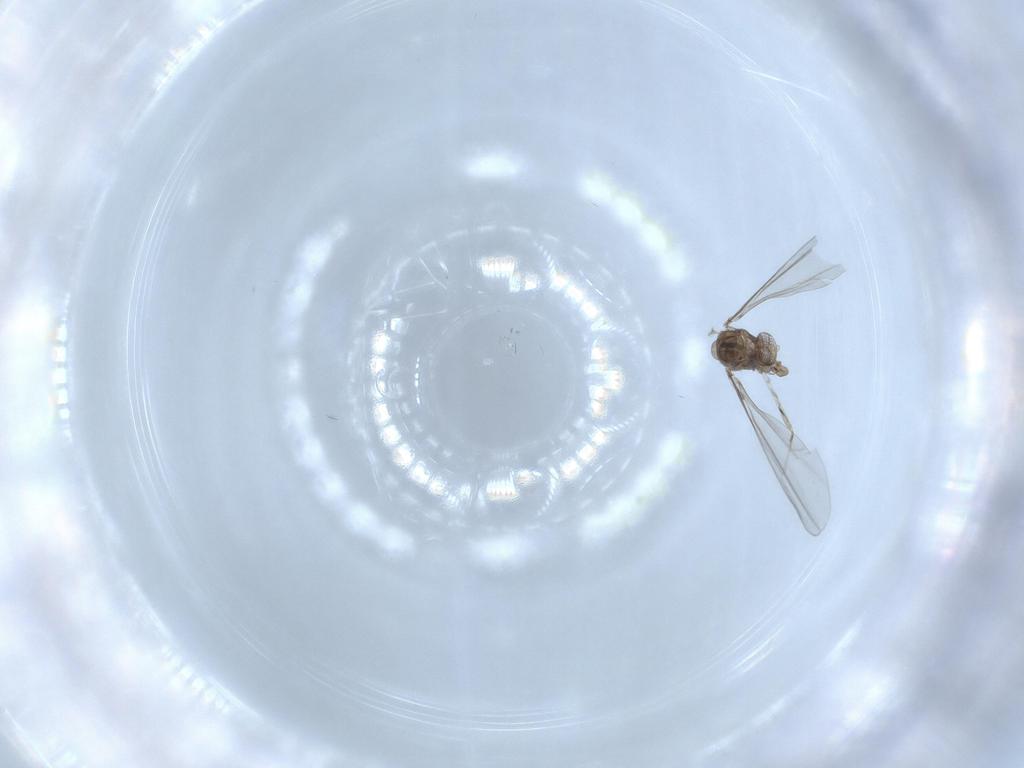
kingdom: Animalia
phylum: Arthropoda
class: Insecta
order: Diptera
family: Cecidomyiidae
